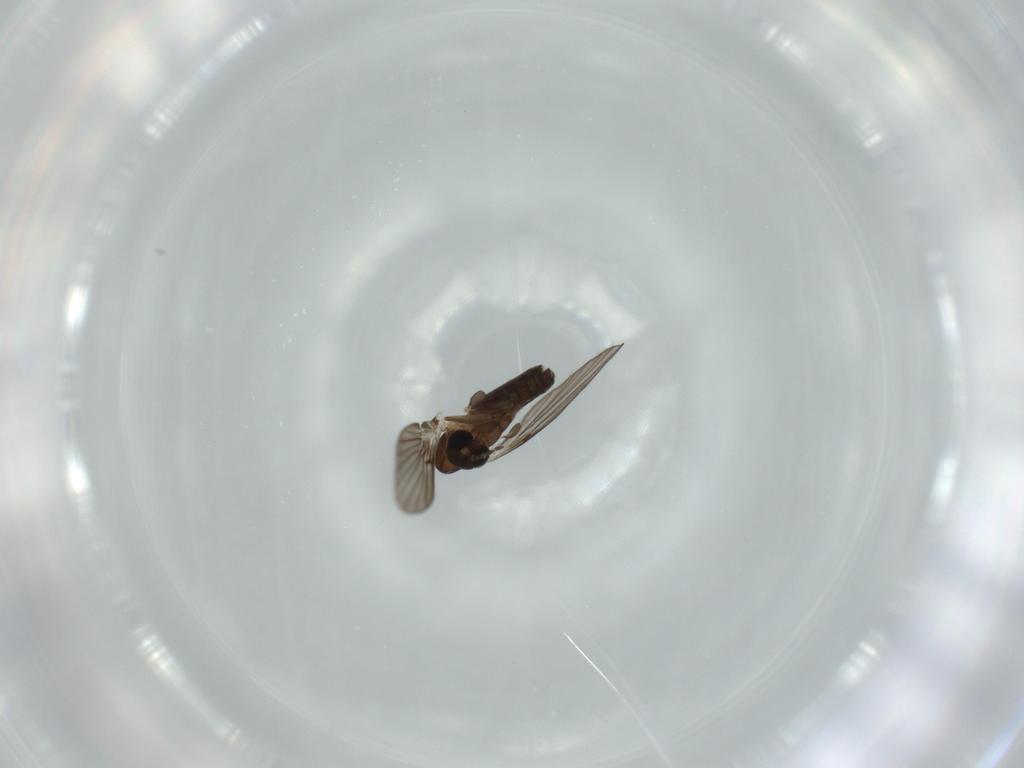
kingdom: Animalia
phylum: Arthropoda
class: Insecta
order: Diptera
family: Psychodidae
